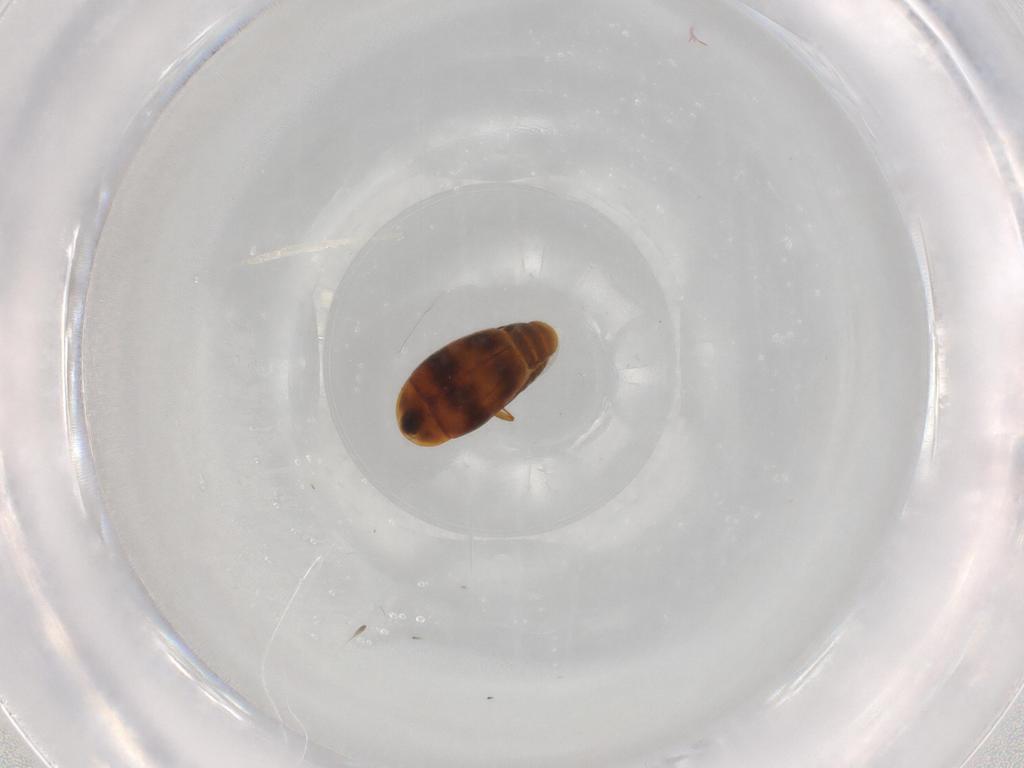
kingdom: Animalia
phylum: Arthropoda
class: Insecta
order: Coleoptera
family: Corylophidae
